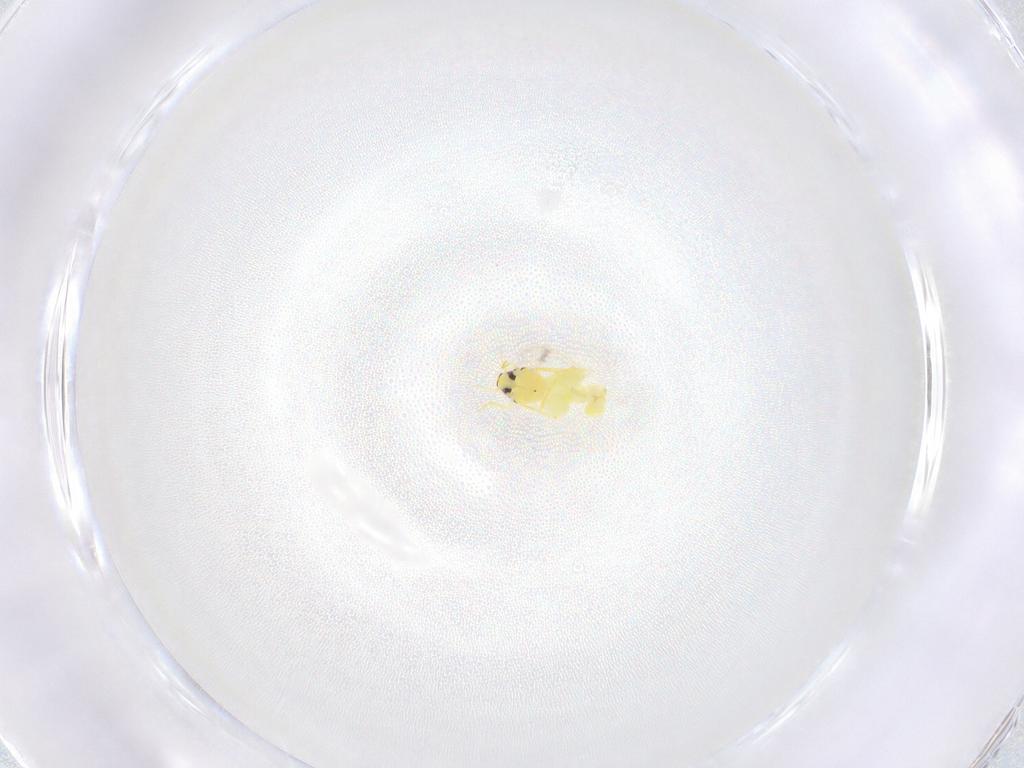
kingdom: Animalia
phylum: Arthropoda
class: Insecta
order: Hemiptera
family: Aleyrodidae
